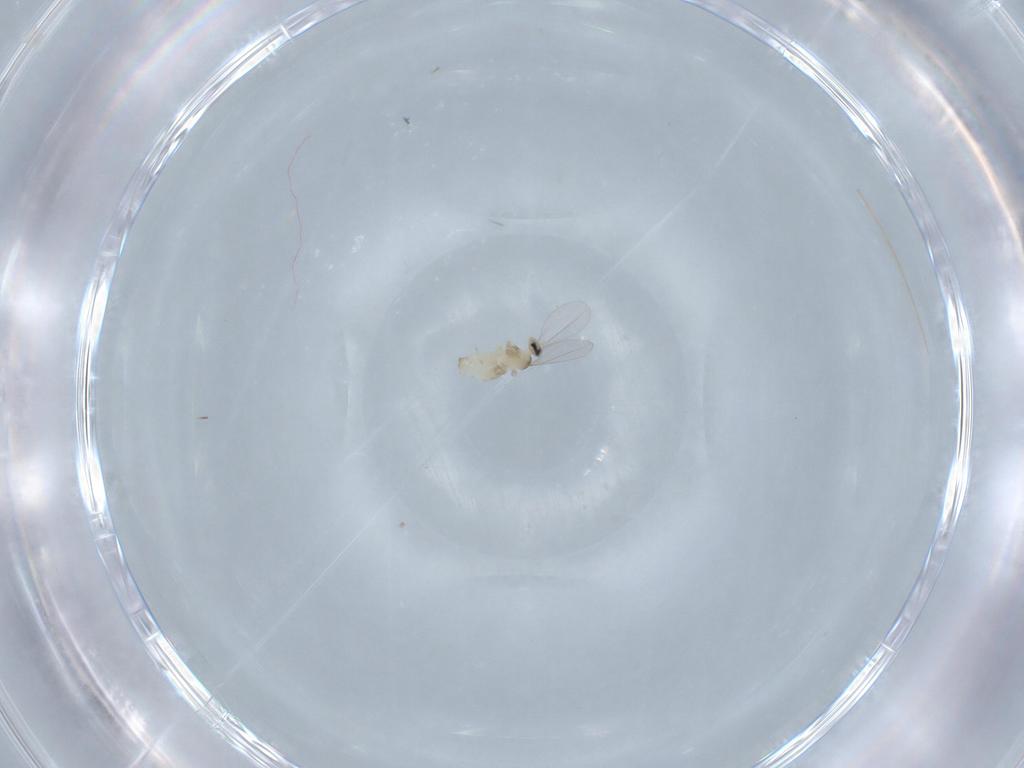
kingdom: Animalia
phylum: Arthropoda
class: Insecta
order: Diptera
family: Cecidomyiidae
